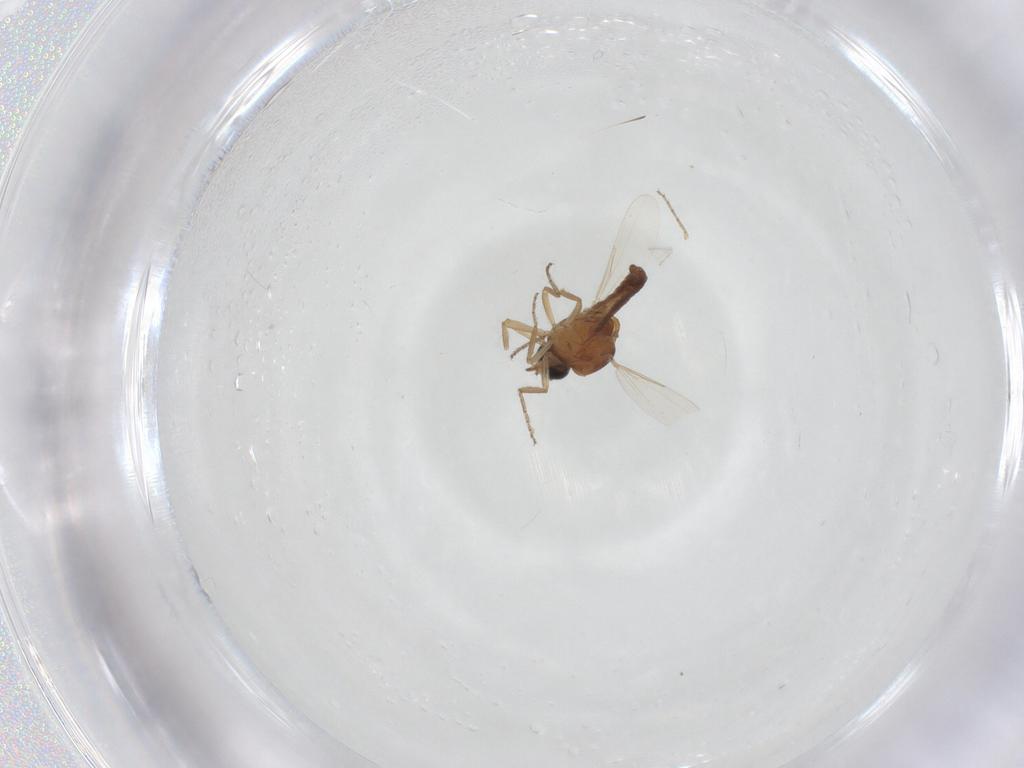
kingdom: Animalia
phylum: Arthropoda
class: Insecta
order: Diptera
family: Ceratopogonidae
